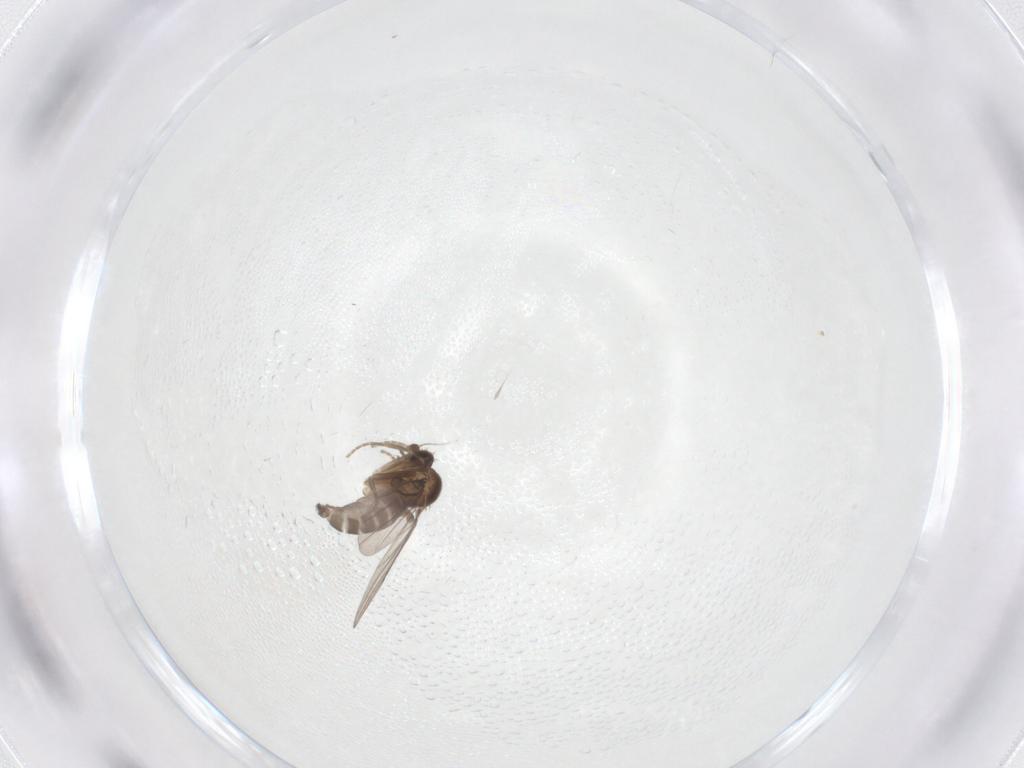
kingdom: Animalia
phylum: Arthropoda
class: Insecta
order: Diptera
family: Phoridae
